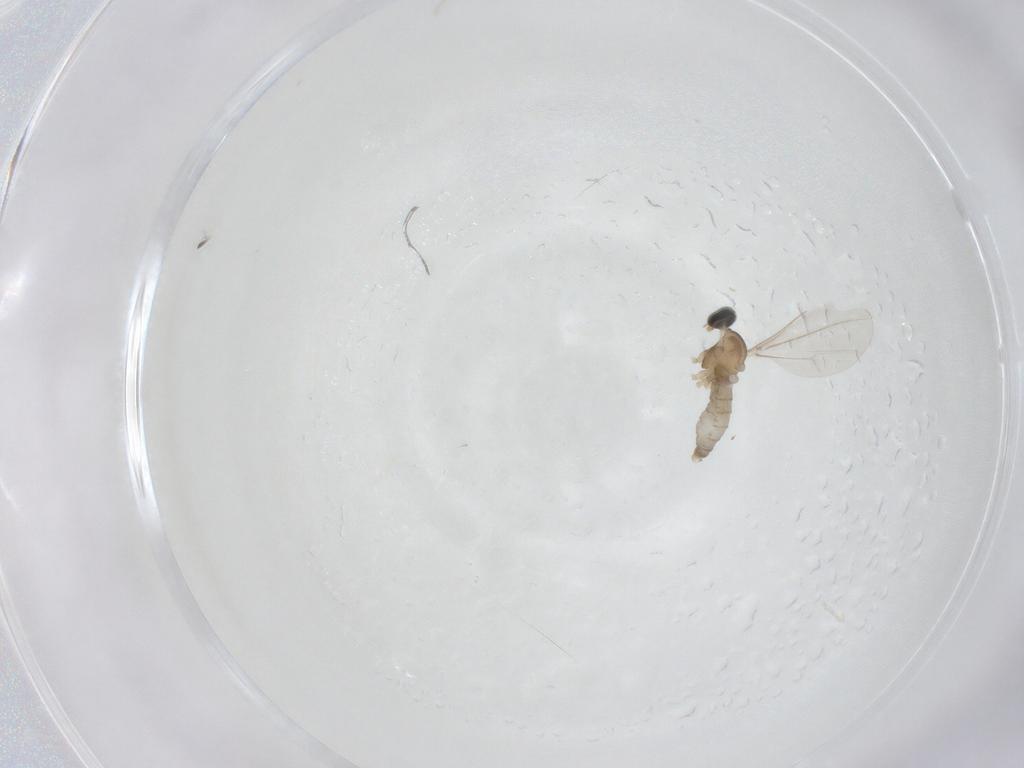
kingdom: Animalia
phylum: Arthropoda
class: Insecta
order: Diptera
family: Cecidomyiidae
